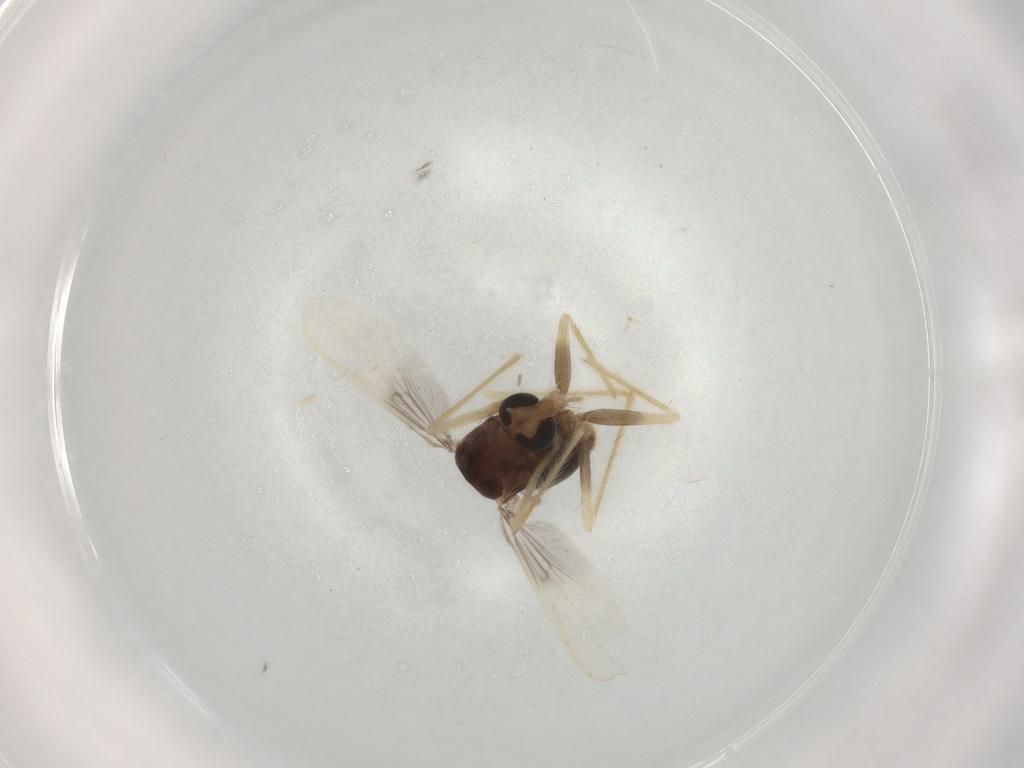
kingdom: Animalia
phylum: Arthropoda
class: Insecta
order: Diptera
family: Chironomidae
